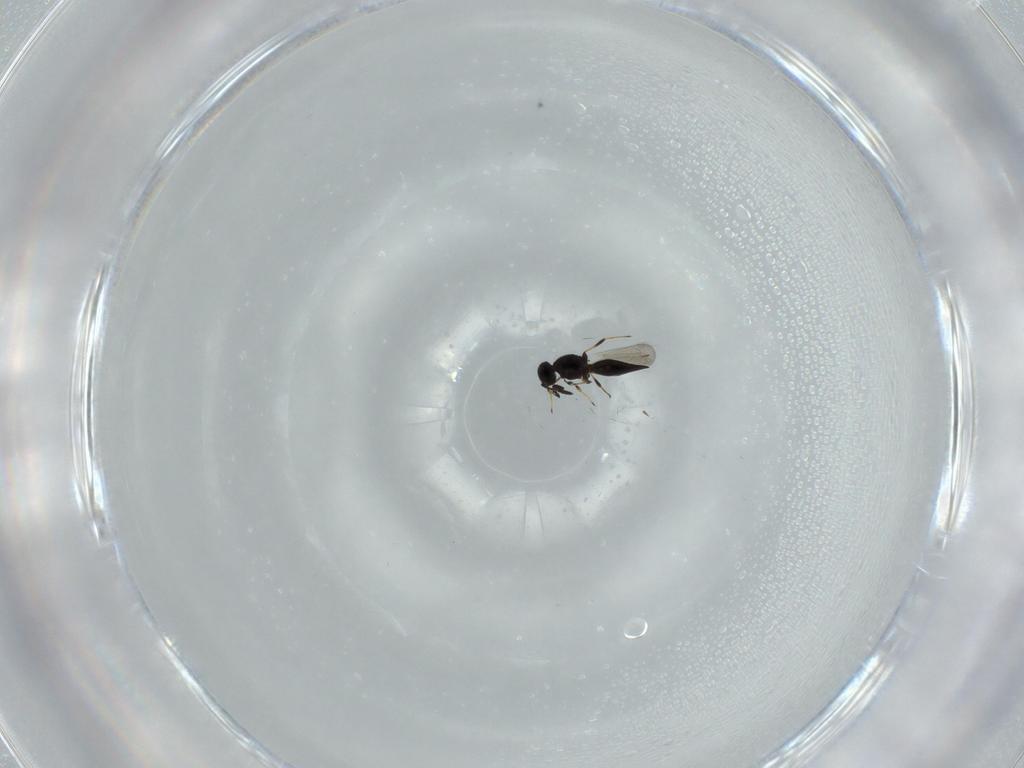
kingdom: Animalia
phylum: Arthropoda
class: Insecta
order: Hymenoptera
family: Platygastridae
